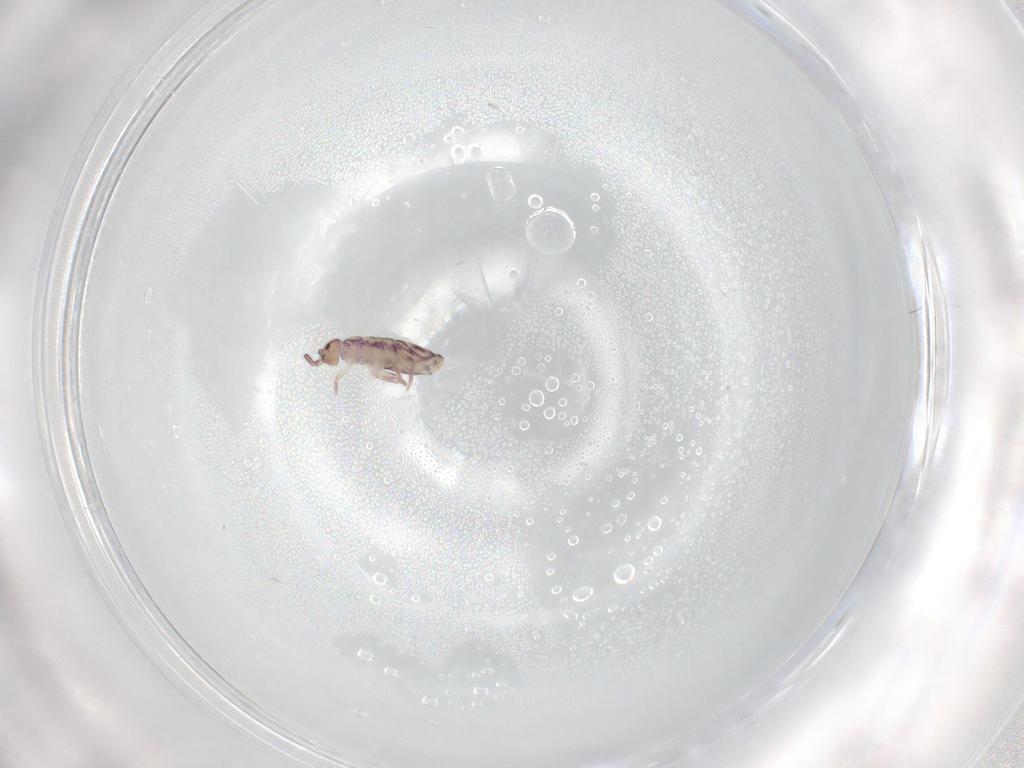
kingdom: Animalia
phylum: Arthropoda
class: Collembola
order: Entomobryomorpha
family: Entomobryidae
